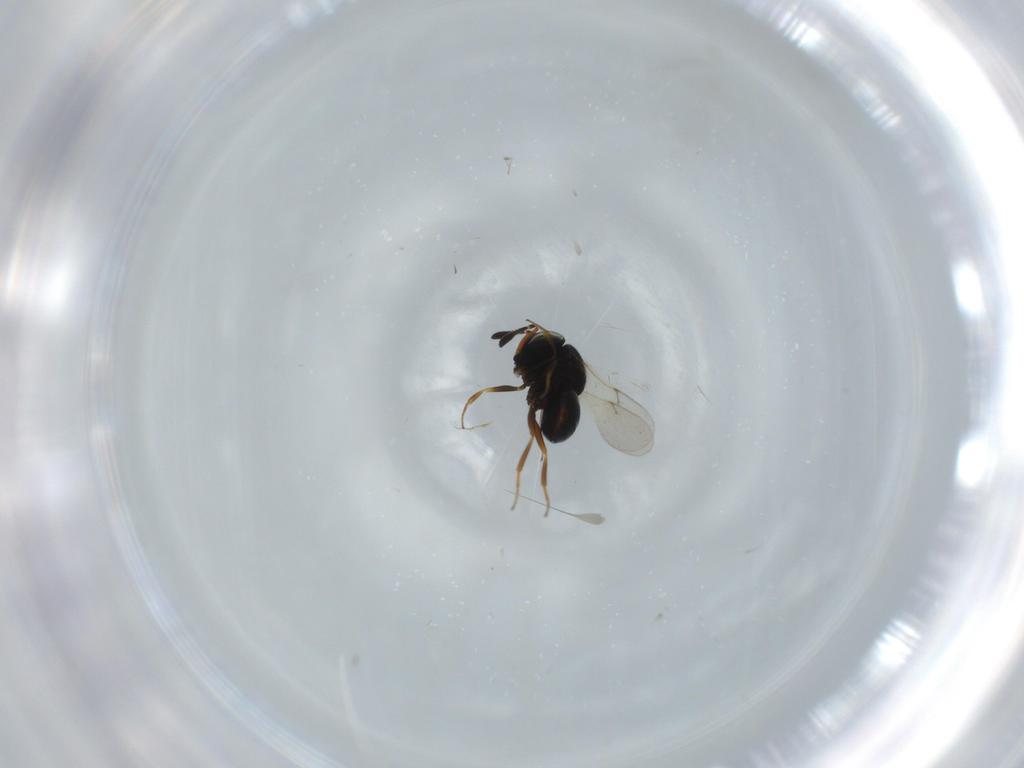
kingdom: Animalia
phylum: Arthropoda
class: Insecta
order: Hymenoptera
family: Scelionidae
